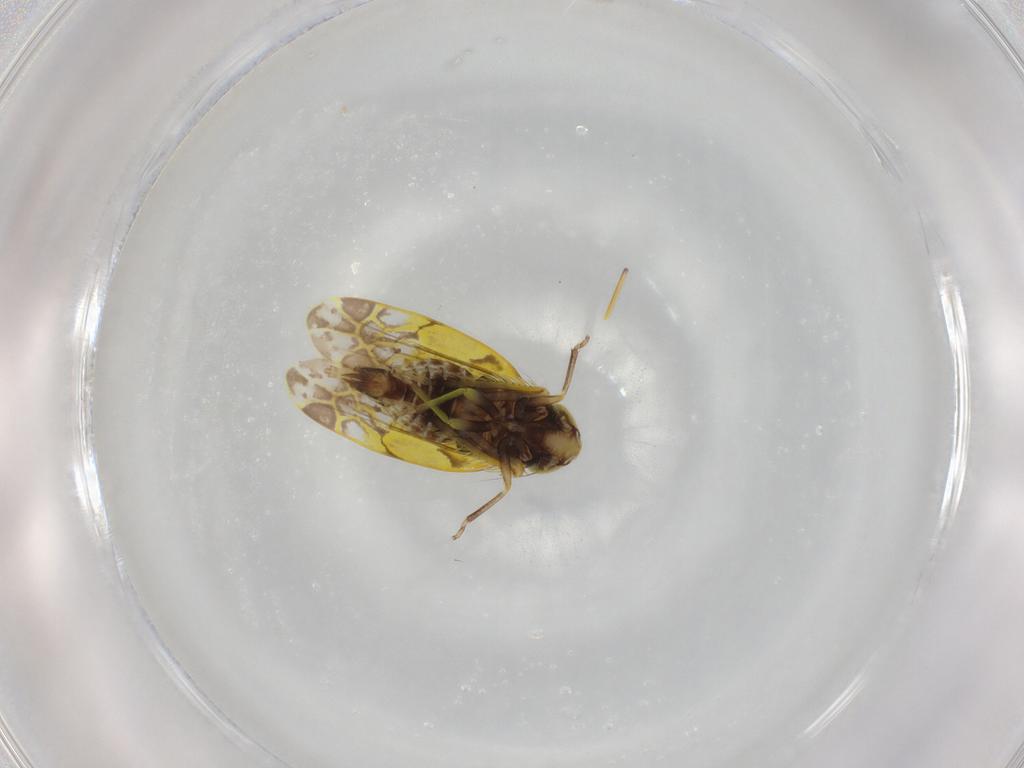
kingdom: Animalia
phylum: Arthropoda
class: Insecta
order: Hemiptera
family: Cicadellidae
